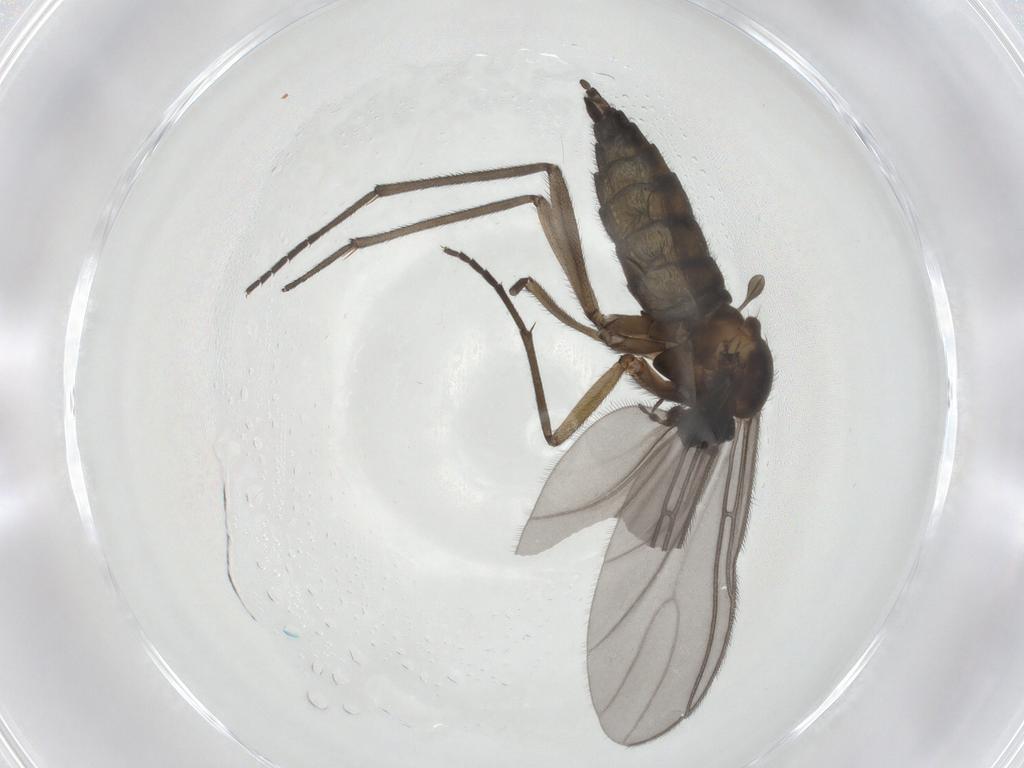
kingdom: Animalia
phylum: Arthropoda
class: Insecta
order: Diptera
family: Sciaridae
